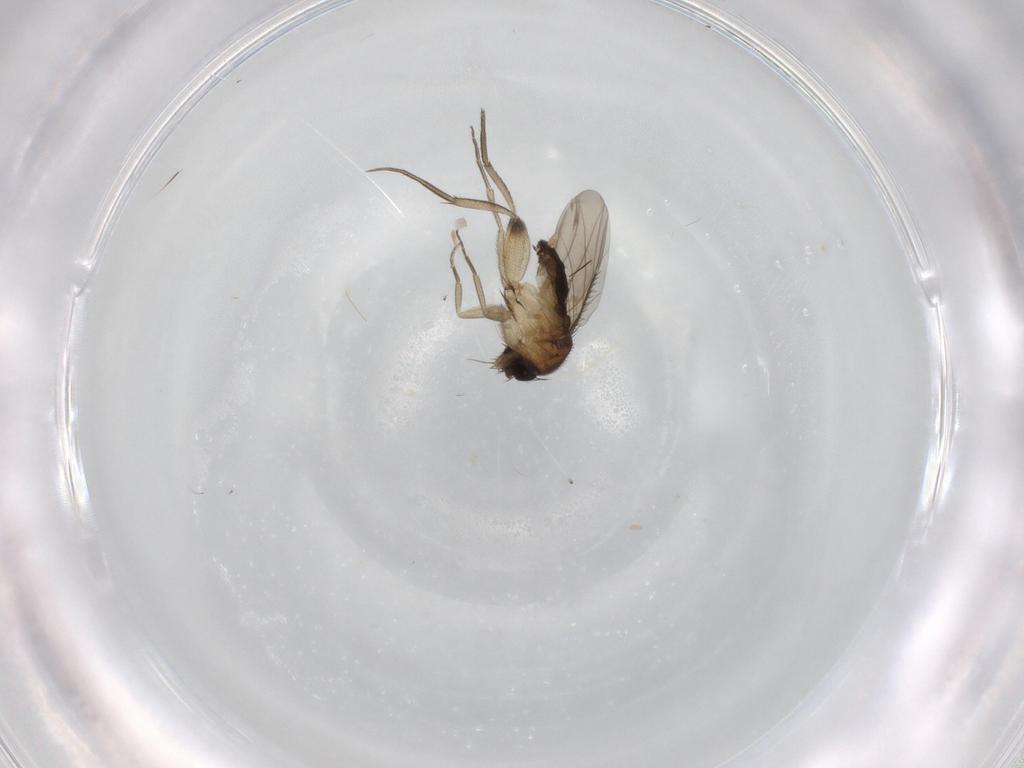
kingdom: Animalia
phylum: Arthropoda
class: Insecta
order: Diptera
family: Phoridae
